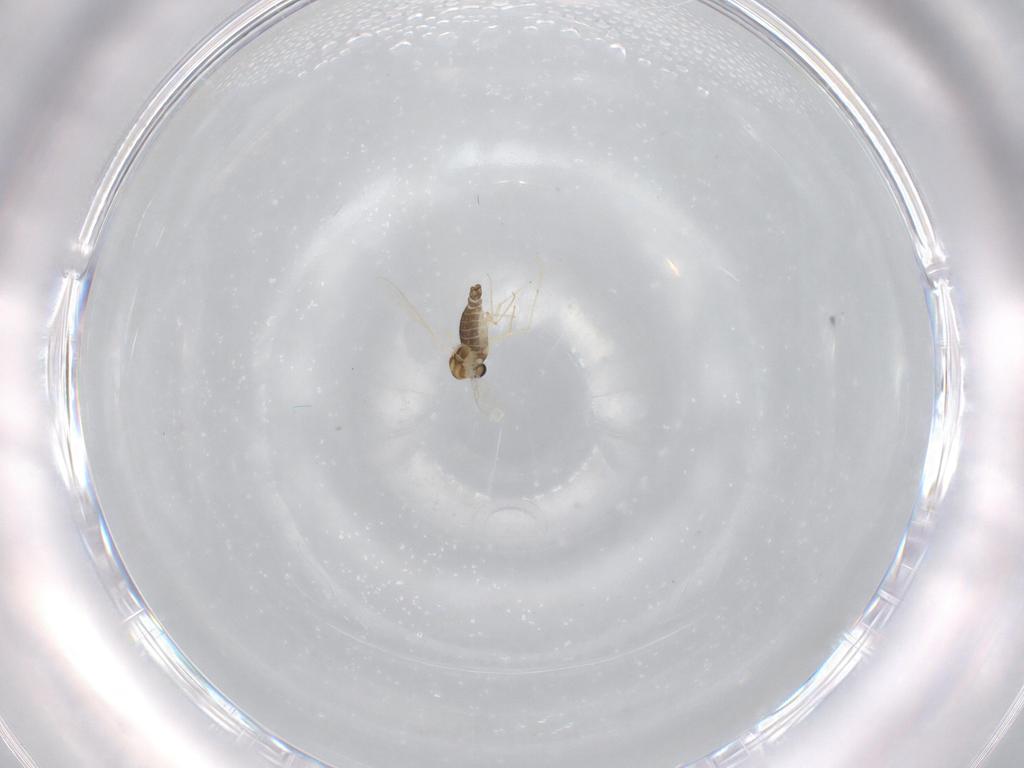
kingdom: Animalia
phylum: Arthropoda
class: Insecta
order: Diptera
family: Chironomidae
